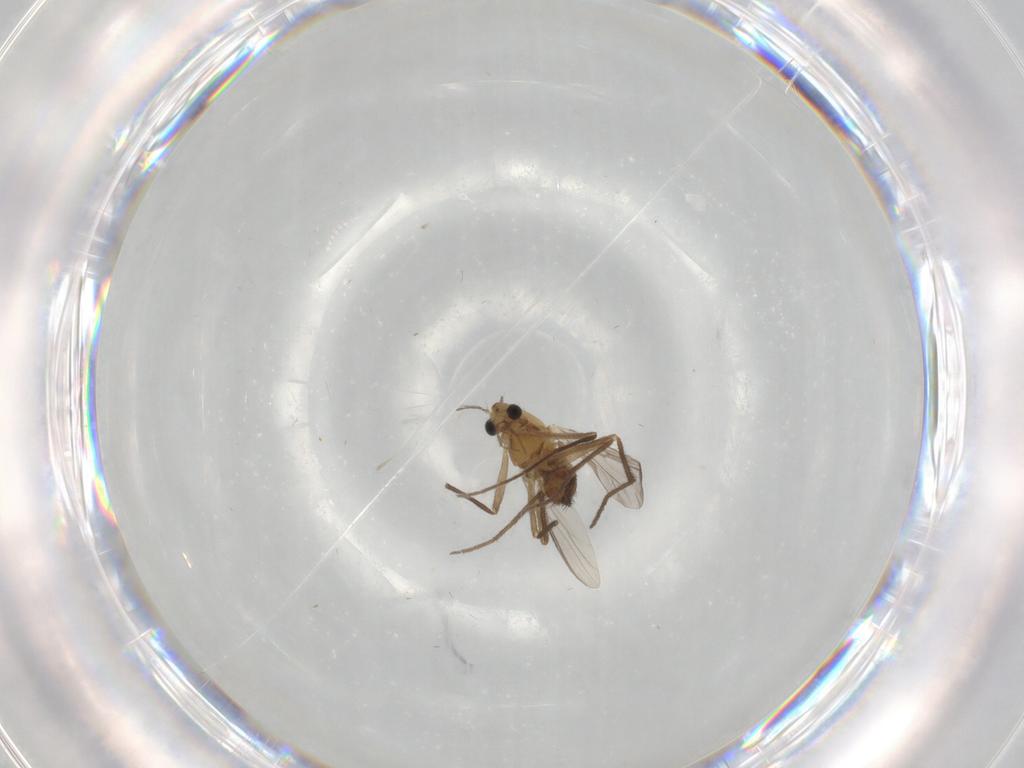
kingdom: Animalia
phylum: Arthropoda
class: Insecta
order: Diptera
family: Chironomidae
